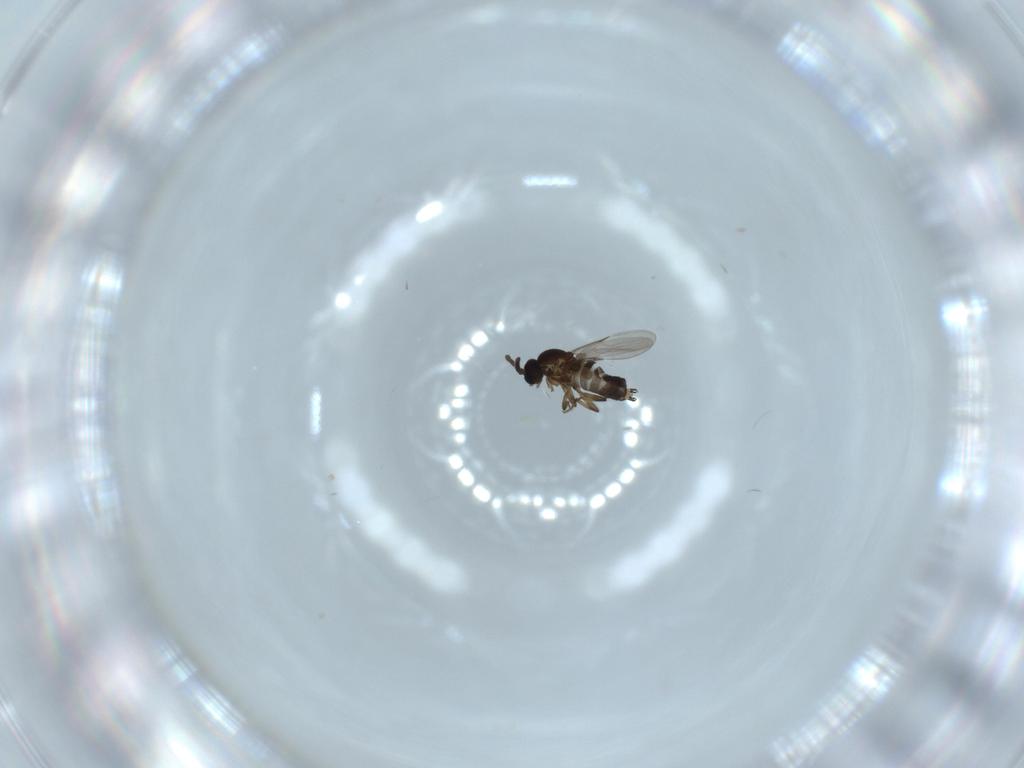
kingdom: Animalia
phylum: Arthropoda
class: Insecta
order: Diptera
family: Scatopsidae
